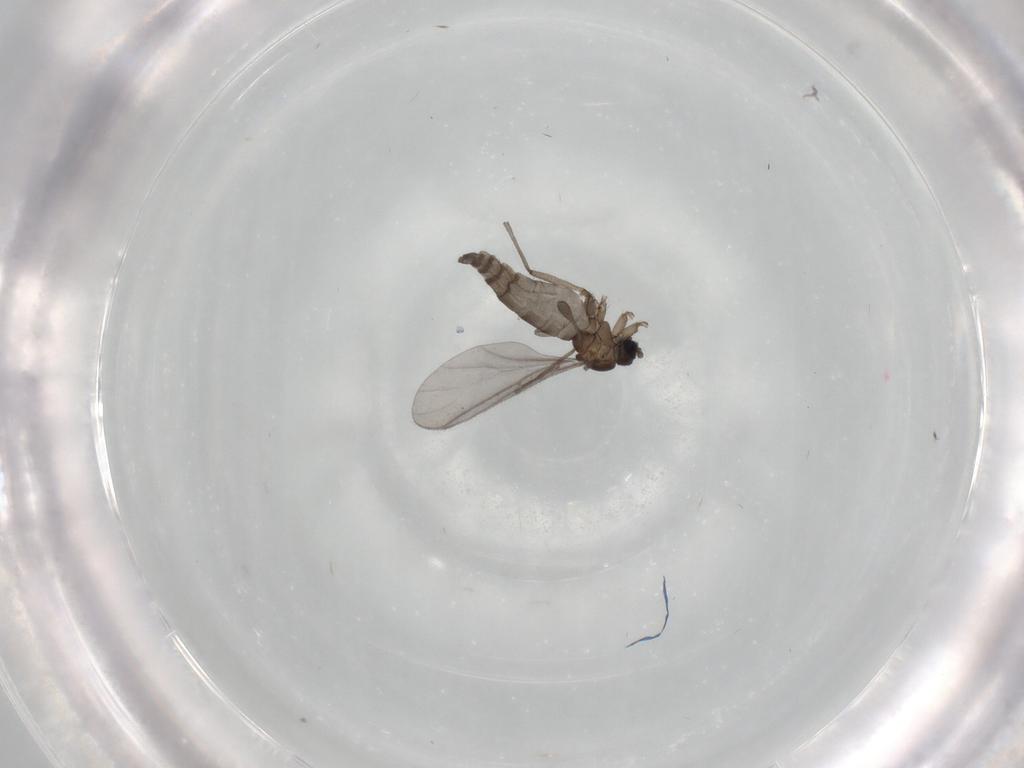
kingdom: Animalia
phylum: Arthropoda
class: Insecta
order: Diptera
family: Sciaridae
